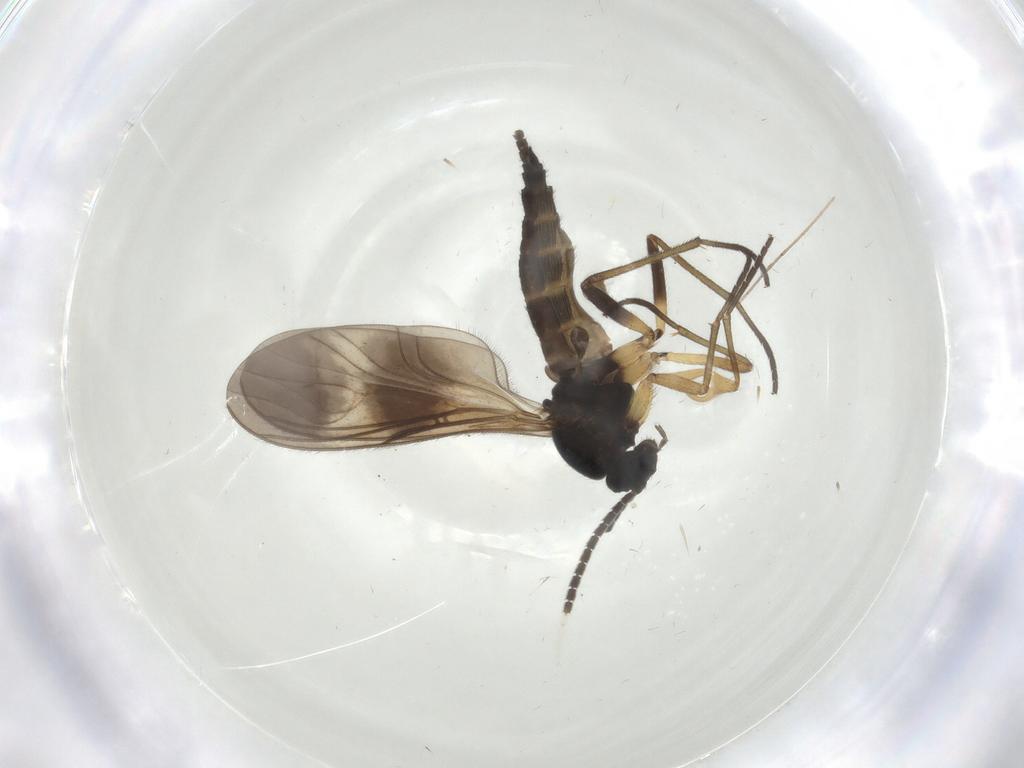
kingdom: Animalia
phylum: Arthropoda
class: Insecta
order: Diptera
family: Sciaridae
